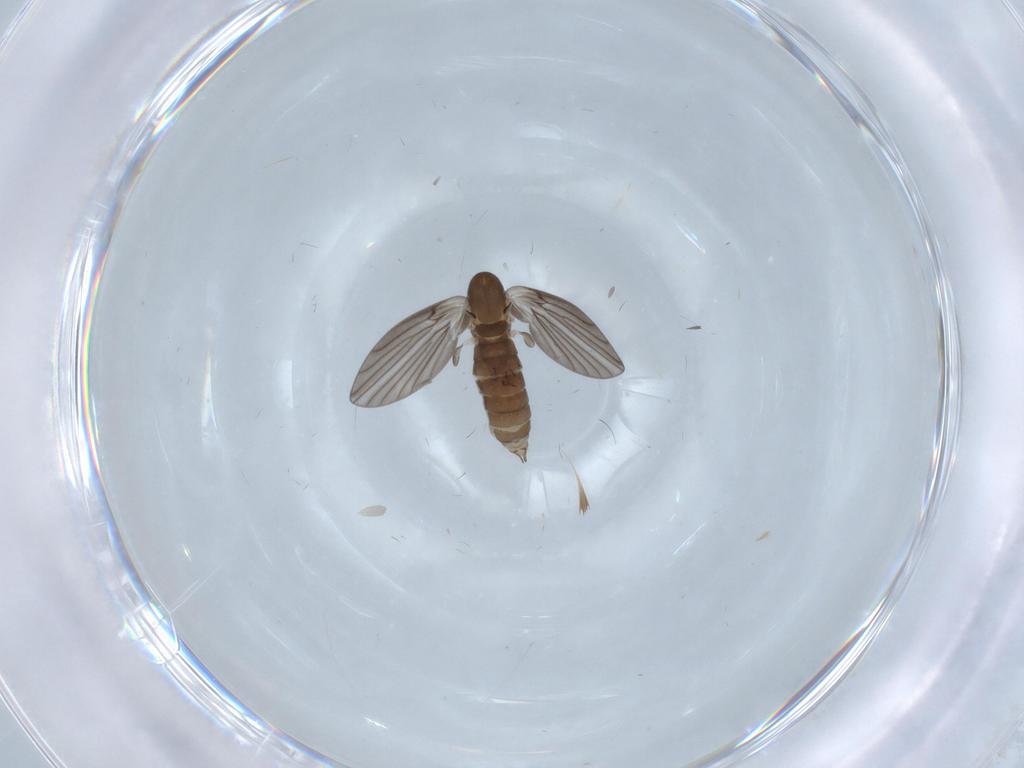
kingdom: Animalia
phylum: Arthropoda
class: Insecta
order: Diptera
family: Psychodidae
